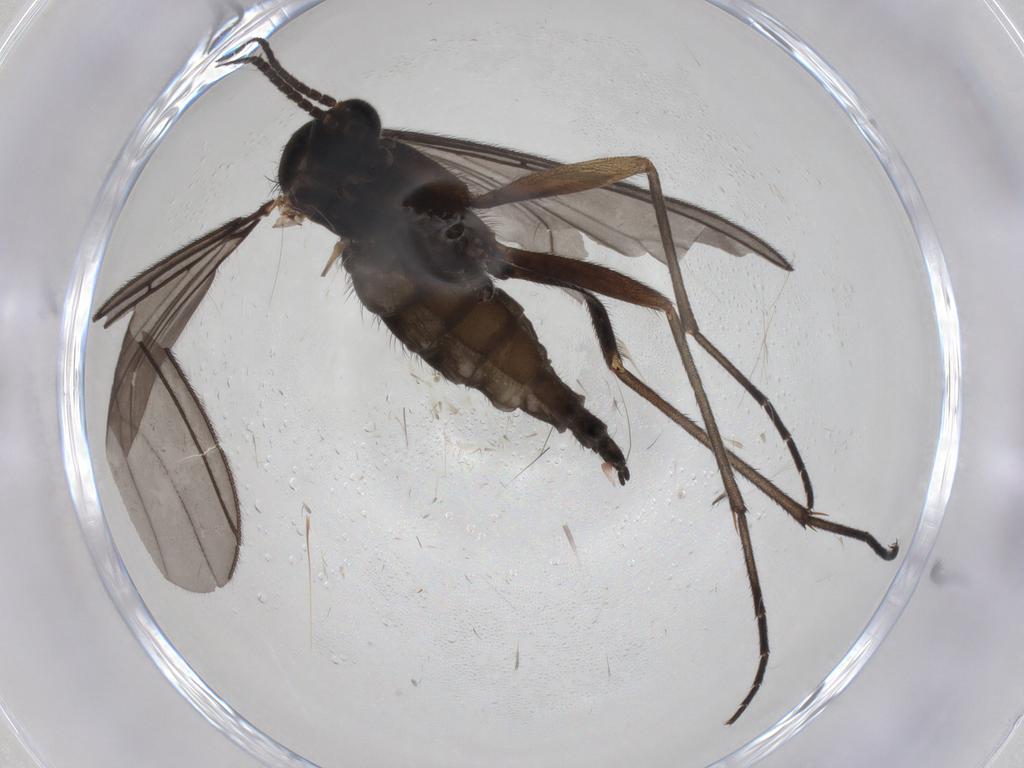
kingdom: Animalia
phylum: Arthropoda
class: Insecta
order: Diptera
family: Sciaridae
